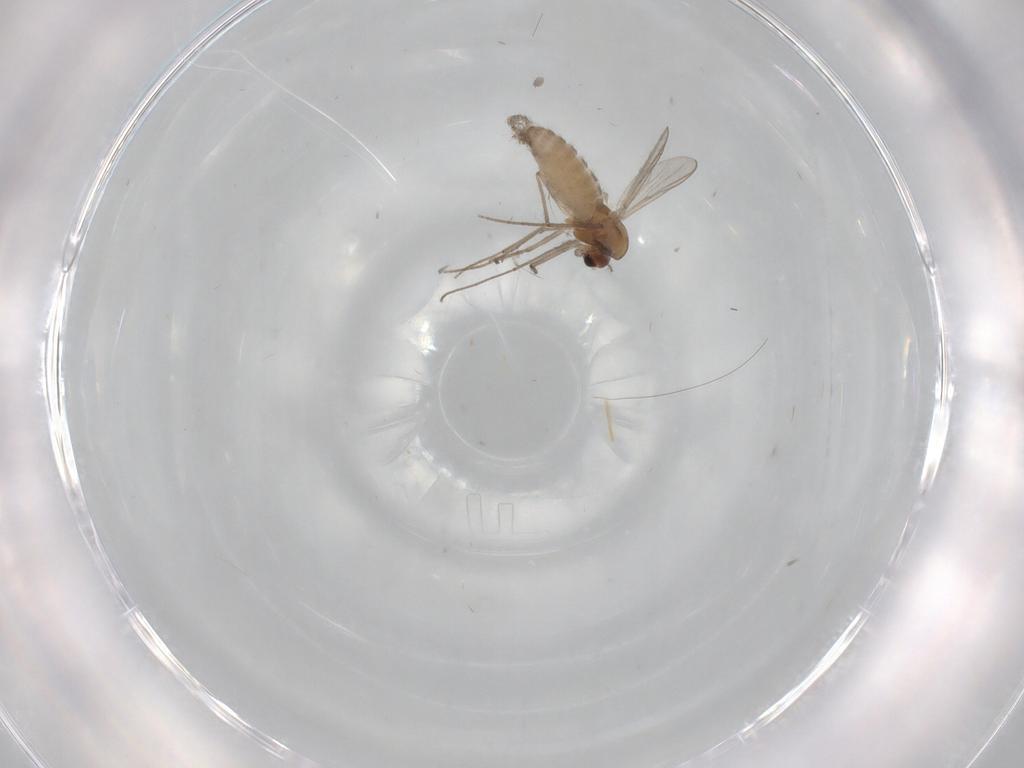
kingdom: Animalia
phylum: Arthropoda
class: Insecta
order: Diptera
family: Chironomidae
